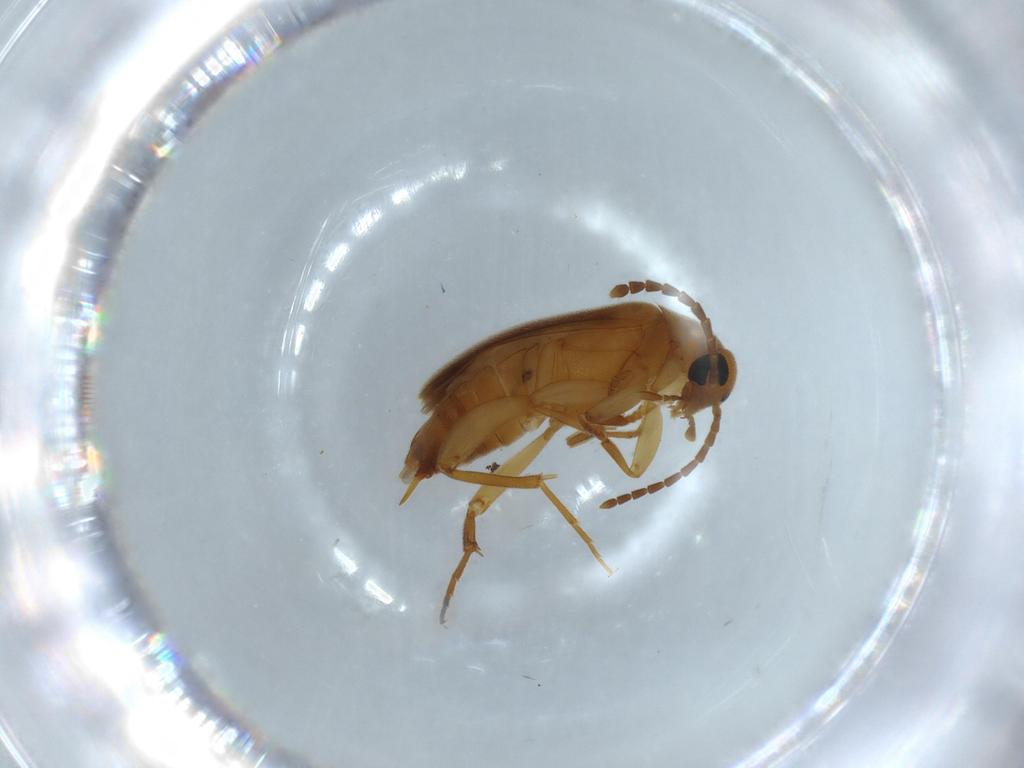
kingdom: Animalia
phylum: Arthropoda
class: Insecta
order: Coleoptera
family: Scraptiidae
